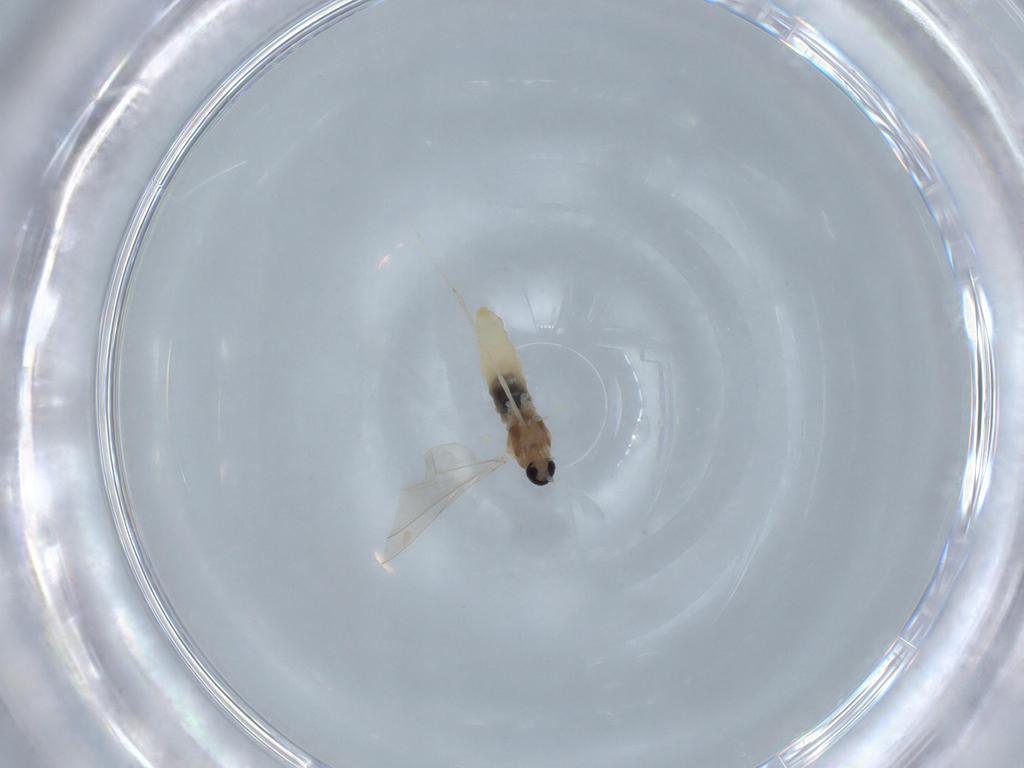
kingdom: Animalia
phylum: Arthropoda
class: Insecta
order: Diptera
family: Cecidomyiidae
